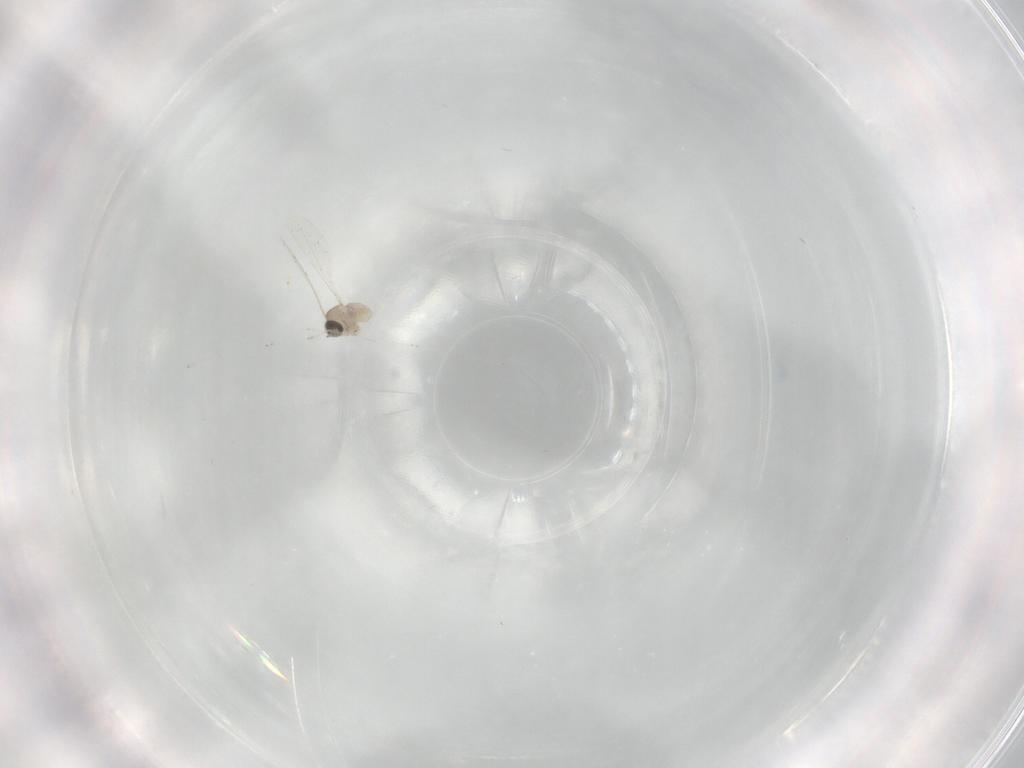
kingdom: Animalia
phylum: Arthropoda
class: Insecta
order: Diptera
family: Cecidomyiidae
